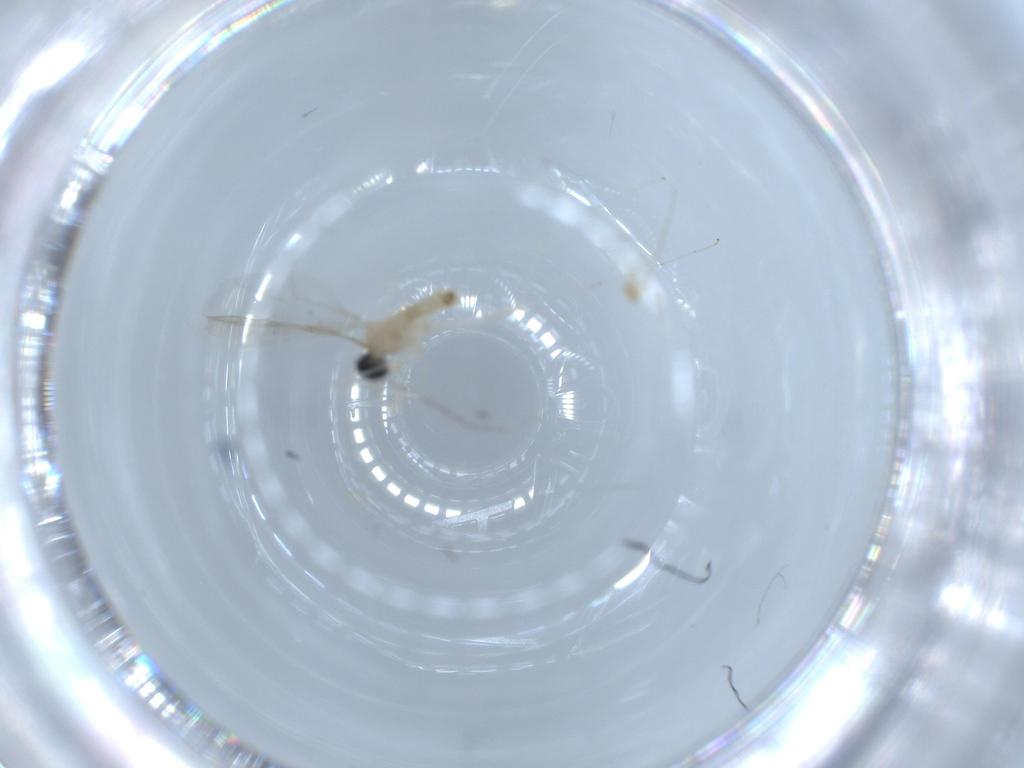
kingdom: Animalia
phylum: Arthropoda
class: Insecta
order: Diptera
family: Cecidomyiidae
